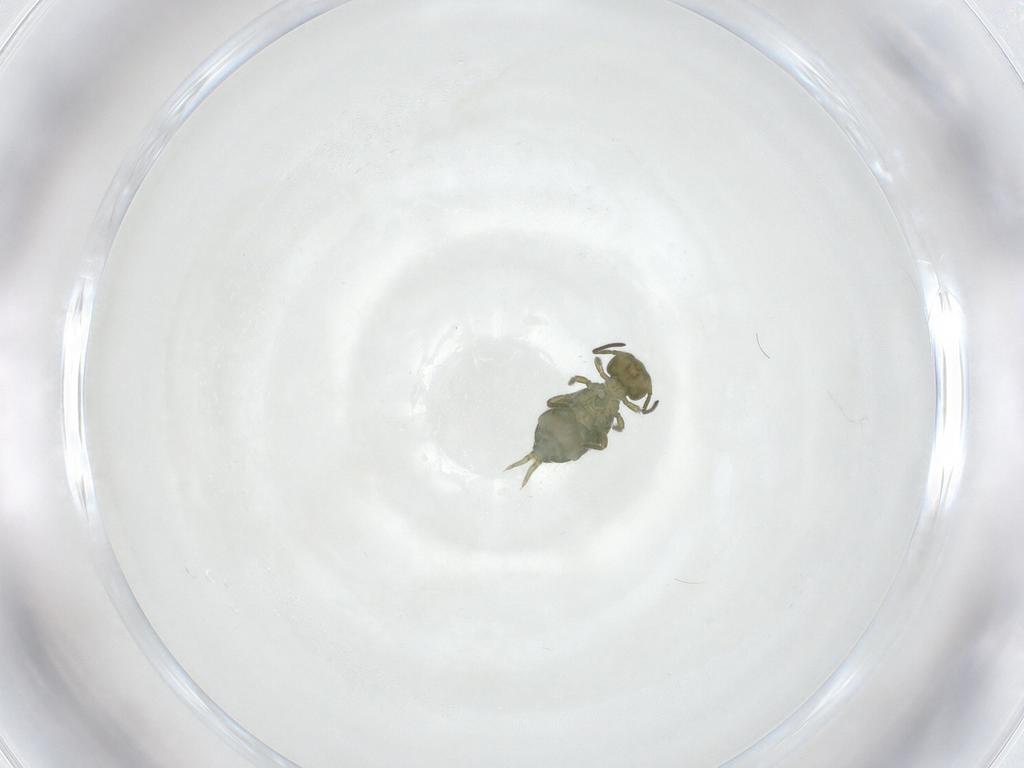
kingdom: Animalia
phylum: Arthropoda
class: Collembola
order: Symphypleona
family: Sminthuridae
